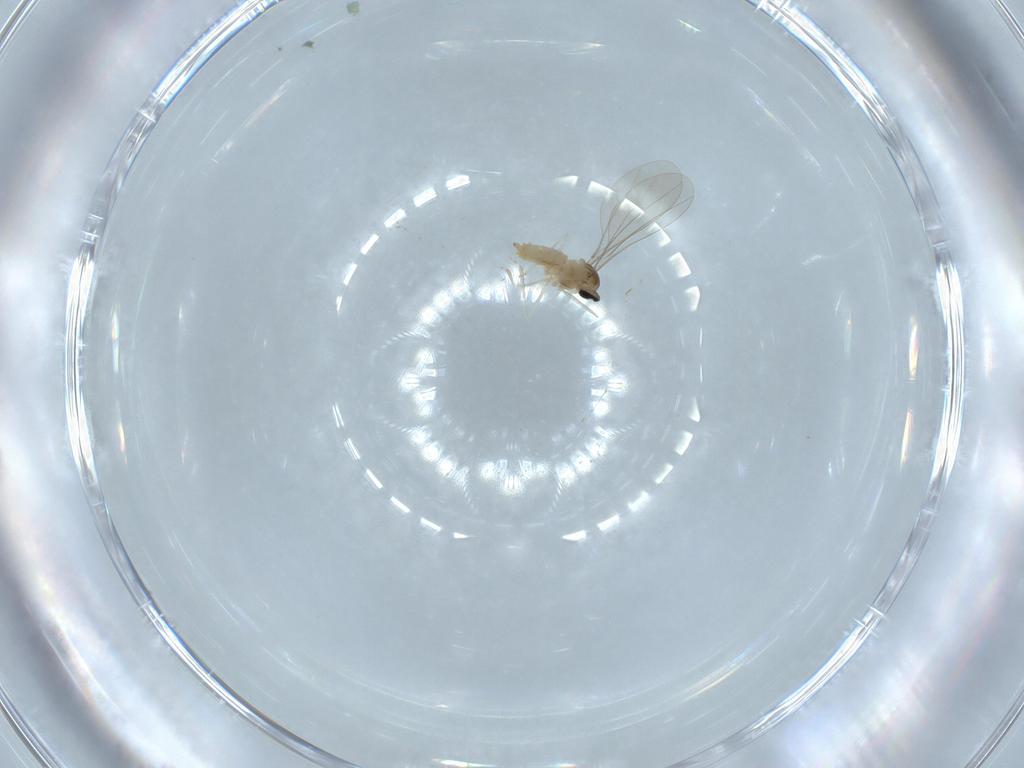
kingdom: Animalia
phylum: Arthropoda
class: Insecta
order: Diptera
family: Cecidomyiidae
